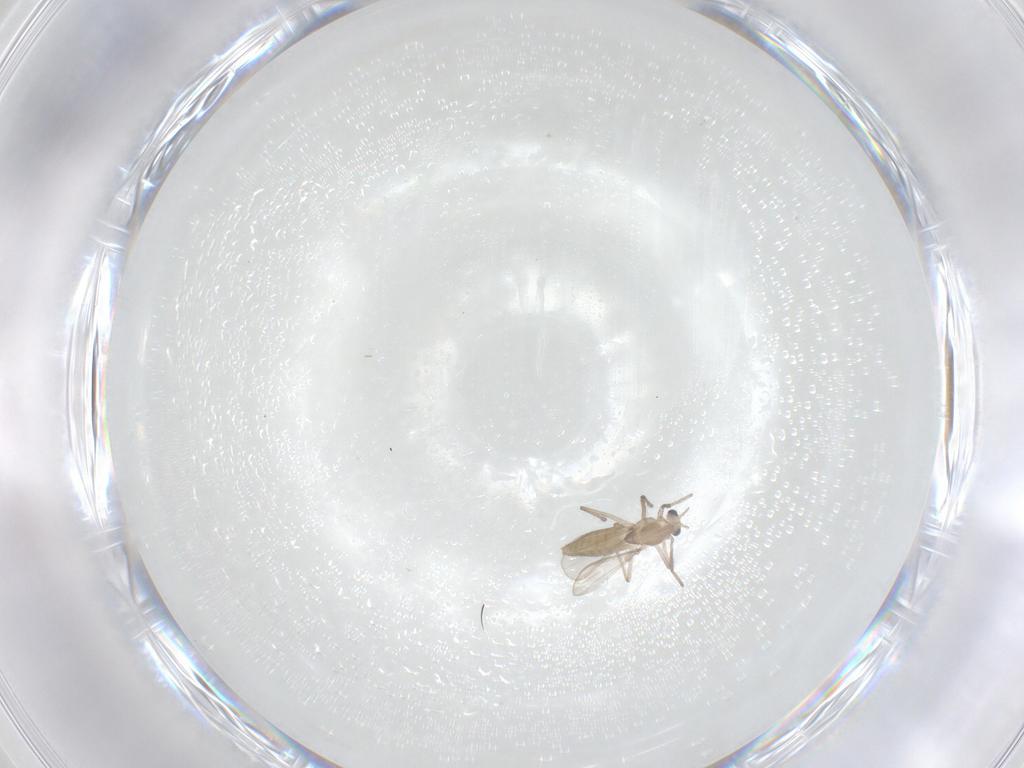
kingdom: Animalia
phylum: Arthropoda
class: Insecta
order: Diptera
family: Chironomidae
